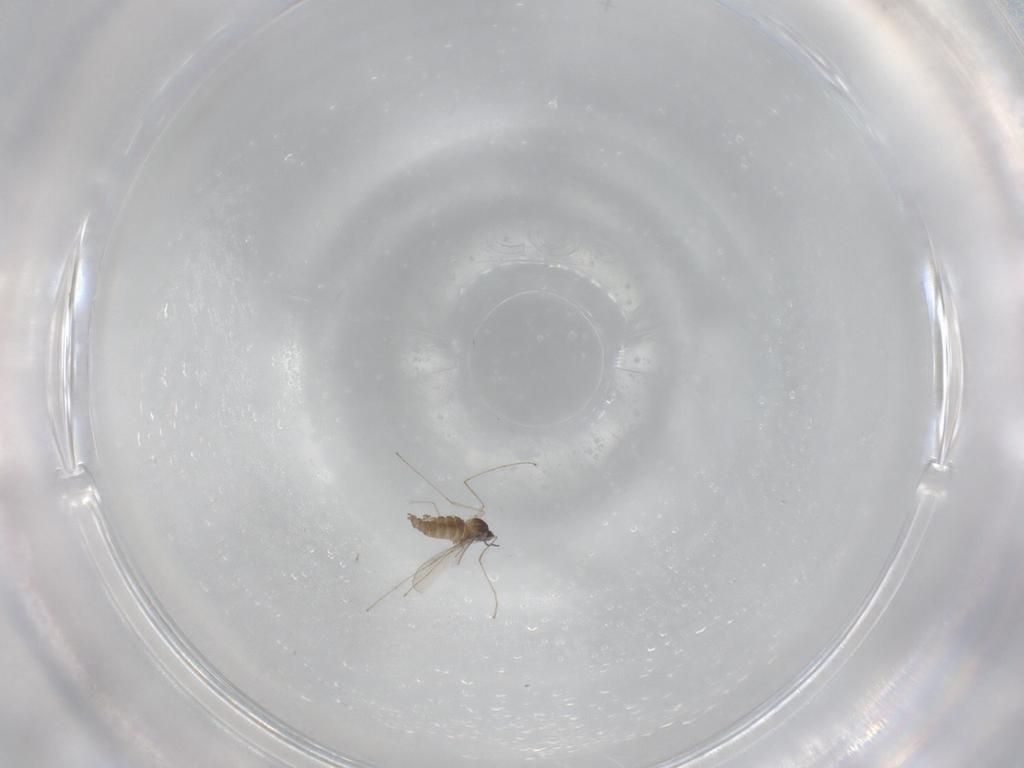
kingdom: Animalia
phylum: Arthropoda
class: Insecta
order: Diptera
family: Cecidomyiidae
